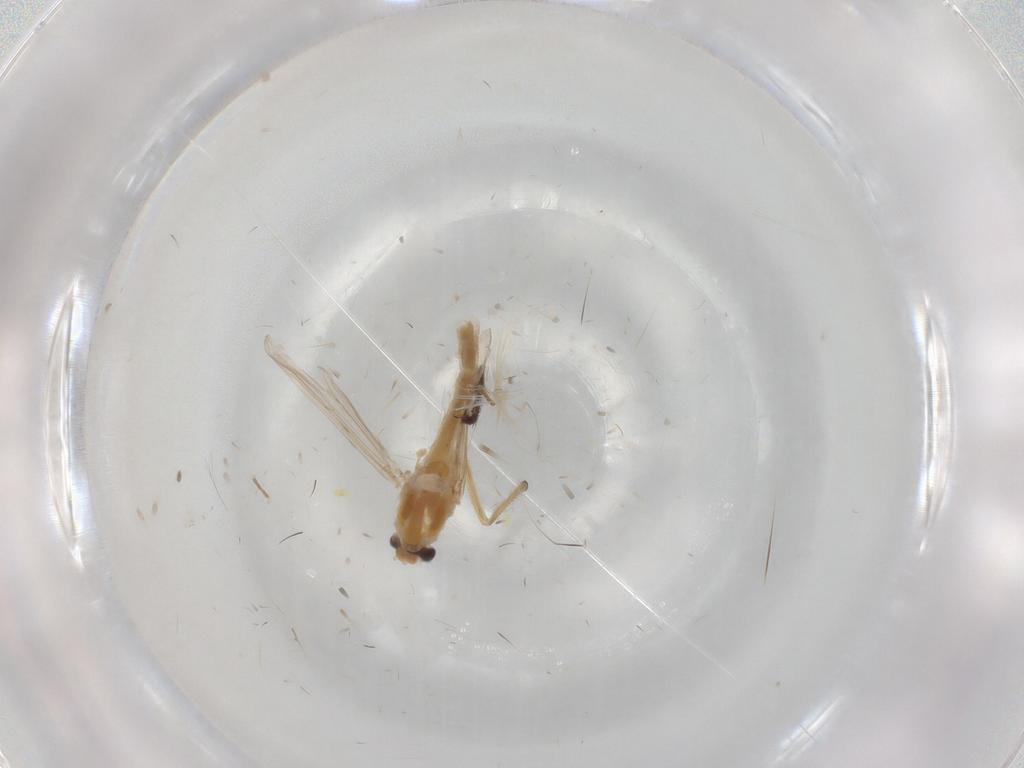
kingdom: Animalia
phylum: Arthropoda
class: Insecta
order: Diptera
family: Chironomidae
